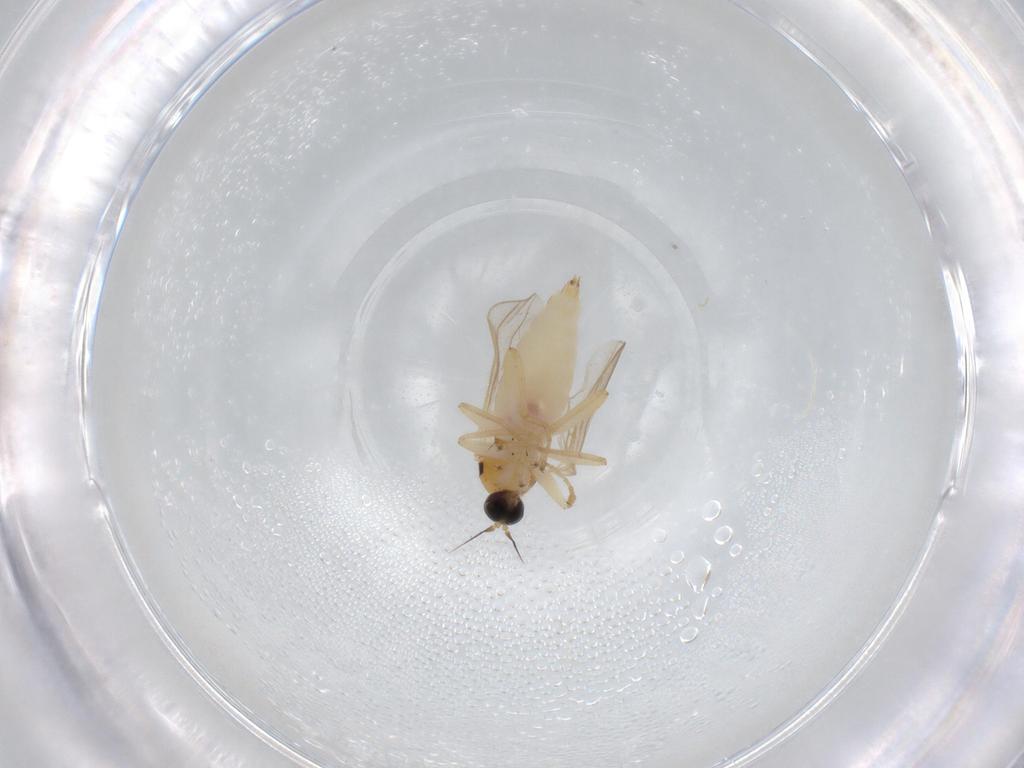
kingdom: Animalia
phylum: Arthropoda
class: Insecta
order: Diptera
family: Hybotidae
